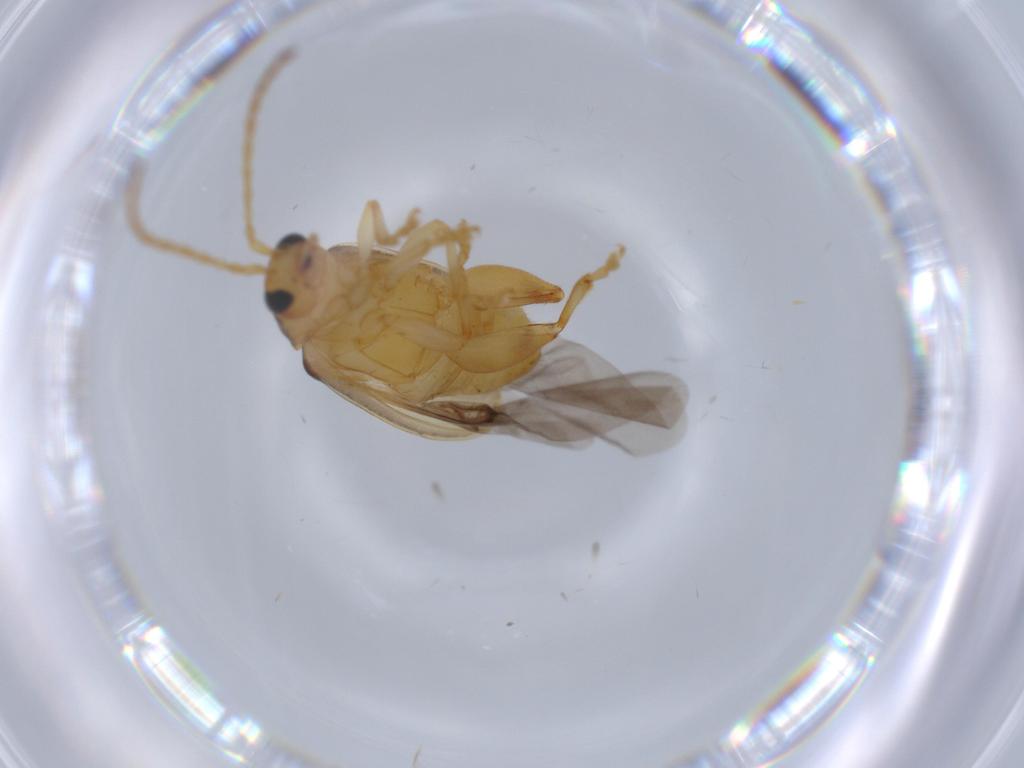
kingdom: Animalia
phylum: Arthropoda
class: Insecta
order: Coleoptera
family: Chrysomelidae
